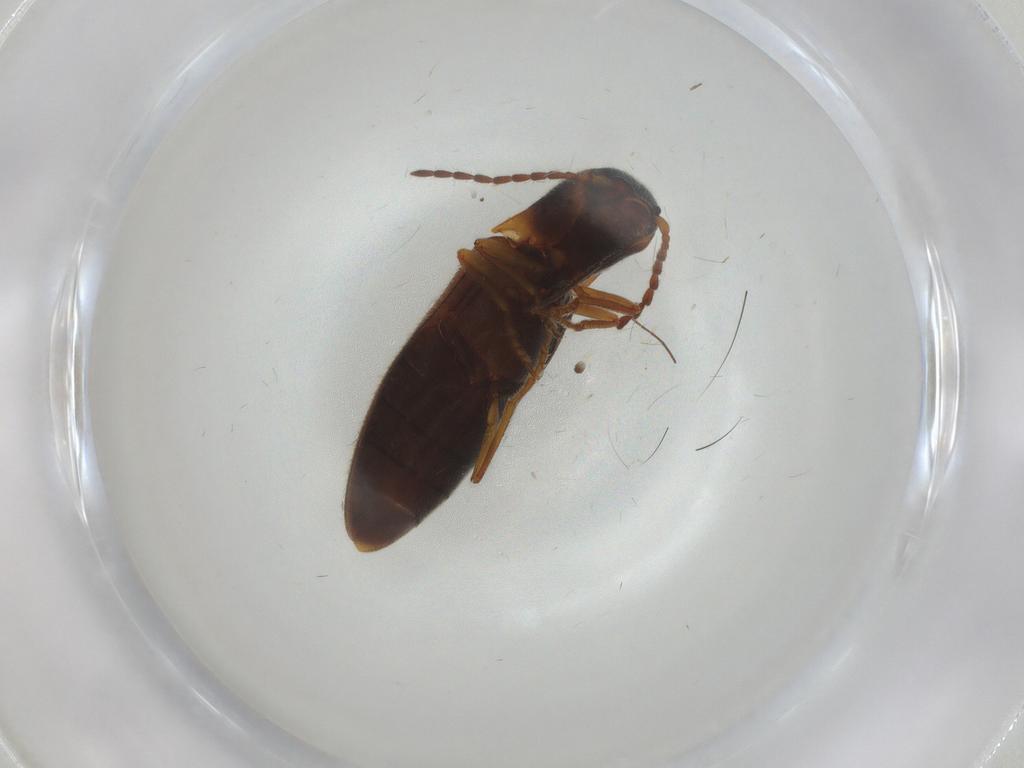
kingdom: Animalia
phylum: Arthropoda
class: Insecta
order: Coleoptera
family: Elateridae
